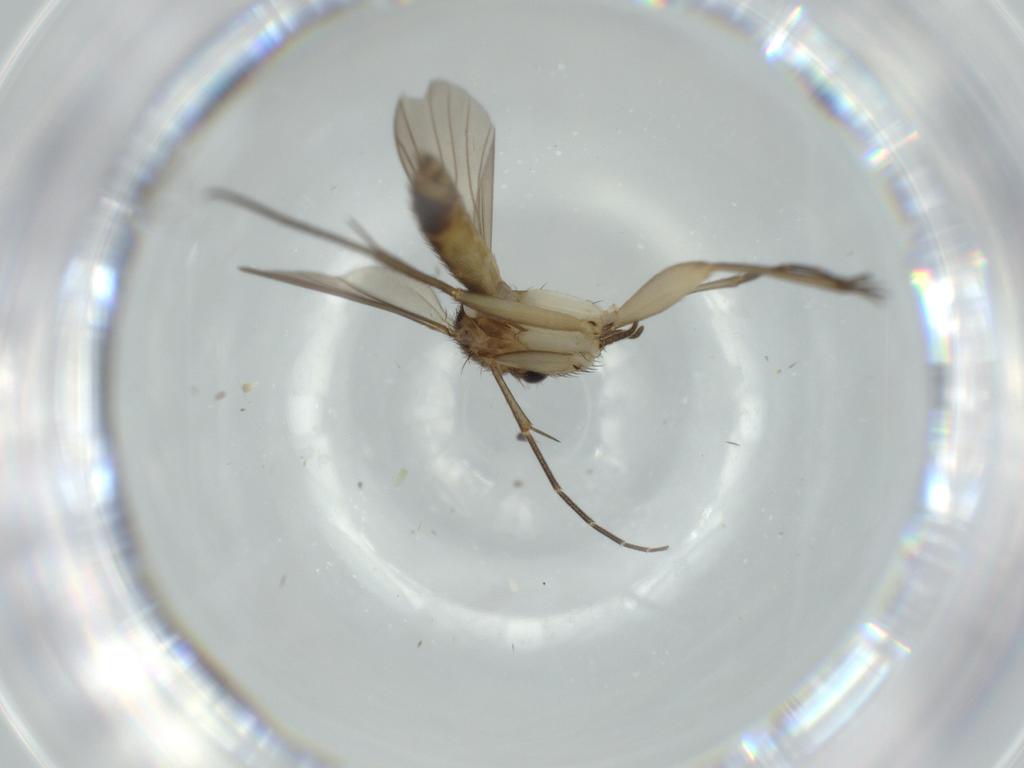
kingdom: Animalia
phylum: Arthropoda
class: Insecta
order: Diptera
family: Mycetophilidae
